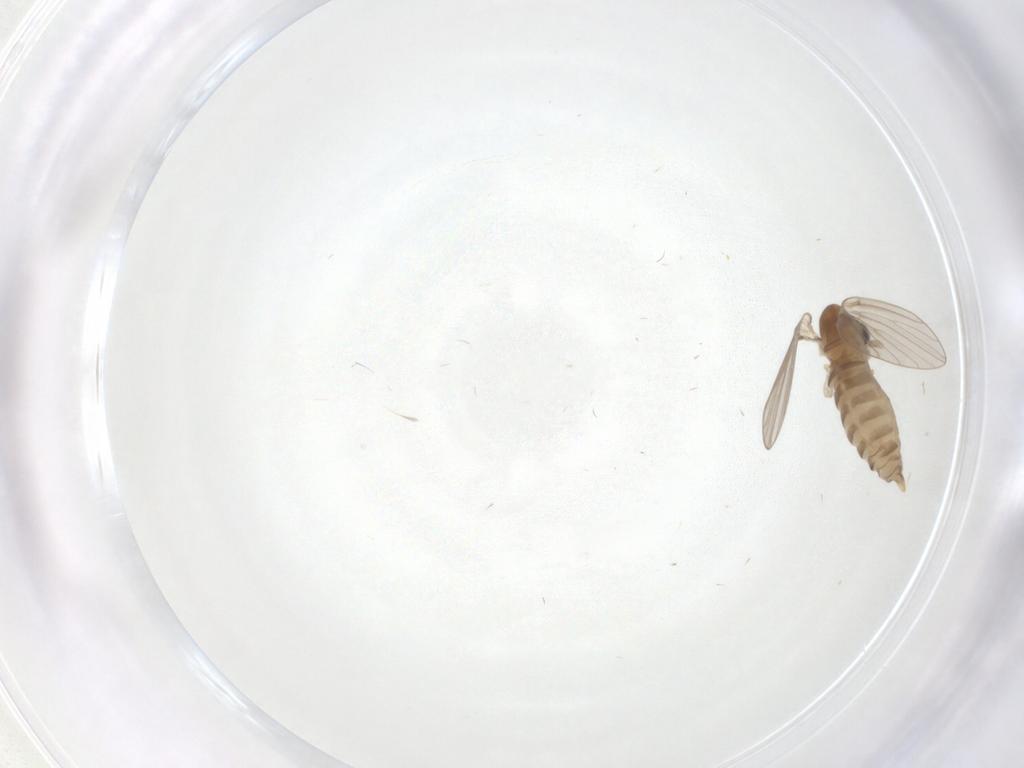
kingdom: Animalia
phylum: Arthropoda
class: Insecta
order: Diptera
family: Psychodidae
